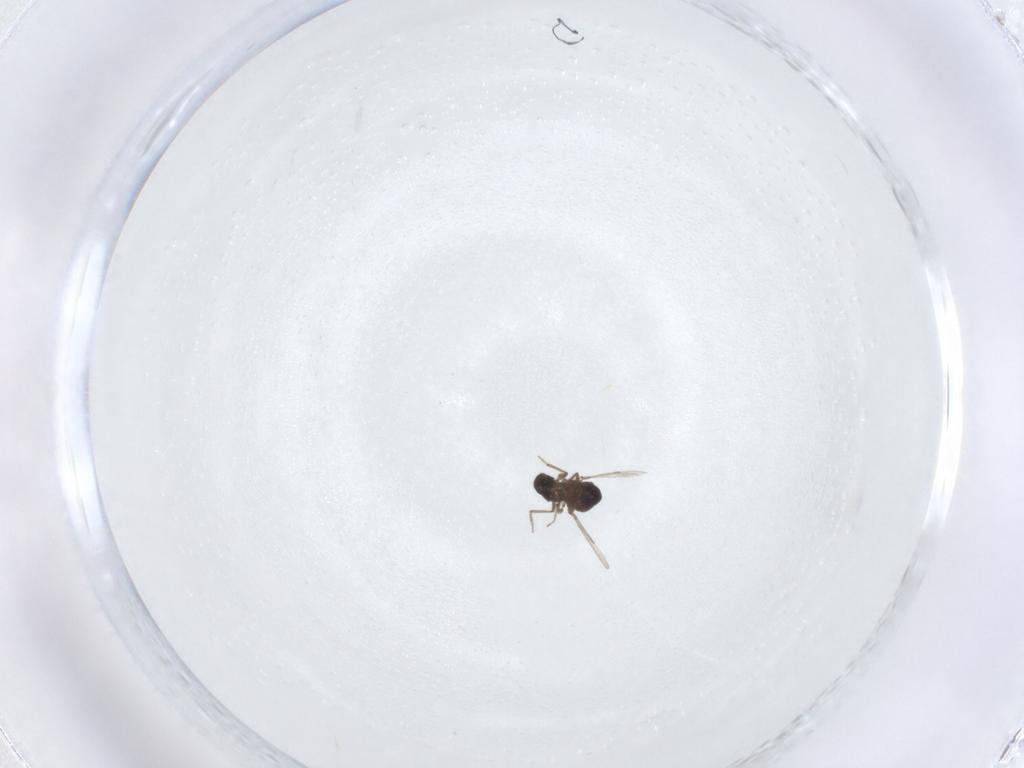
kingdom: Animalia
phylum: Arthropoda
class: Insecta
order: Diptera
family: Ceratopogonidae
